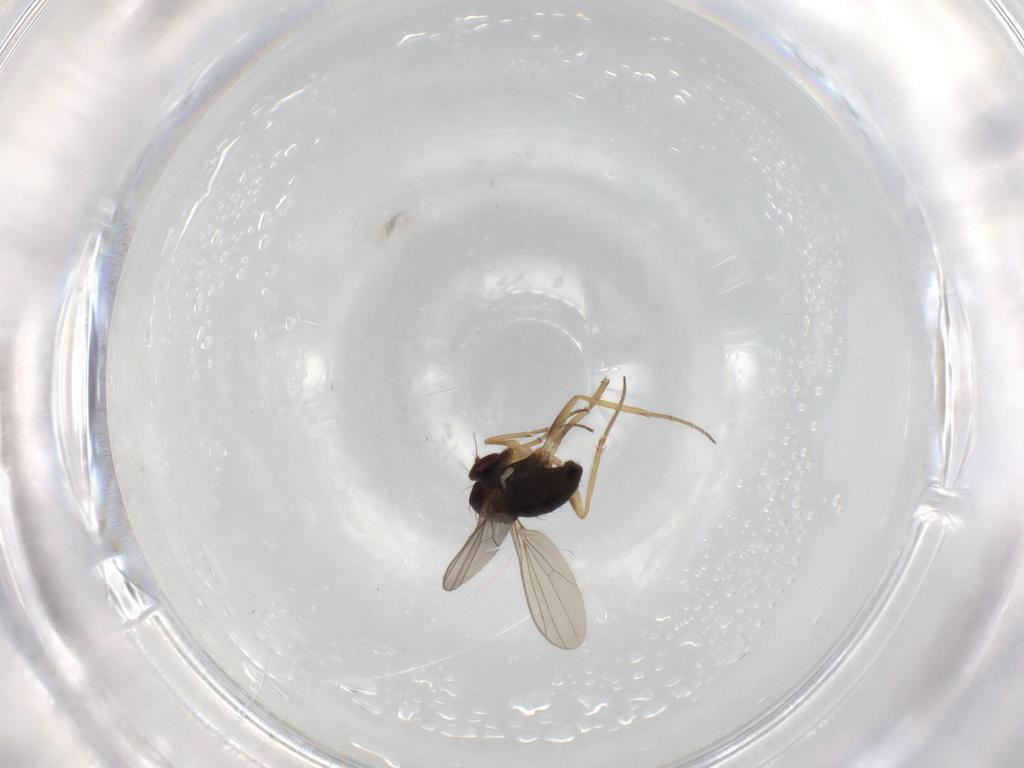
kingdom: Animalia
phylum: Arthropoda
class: Insecta
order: Diptera
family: Dolichopodidae
